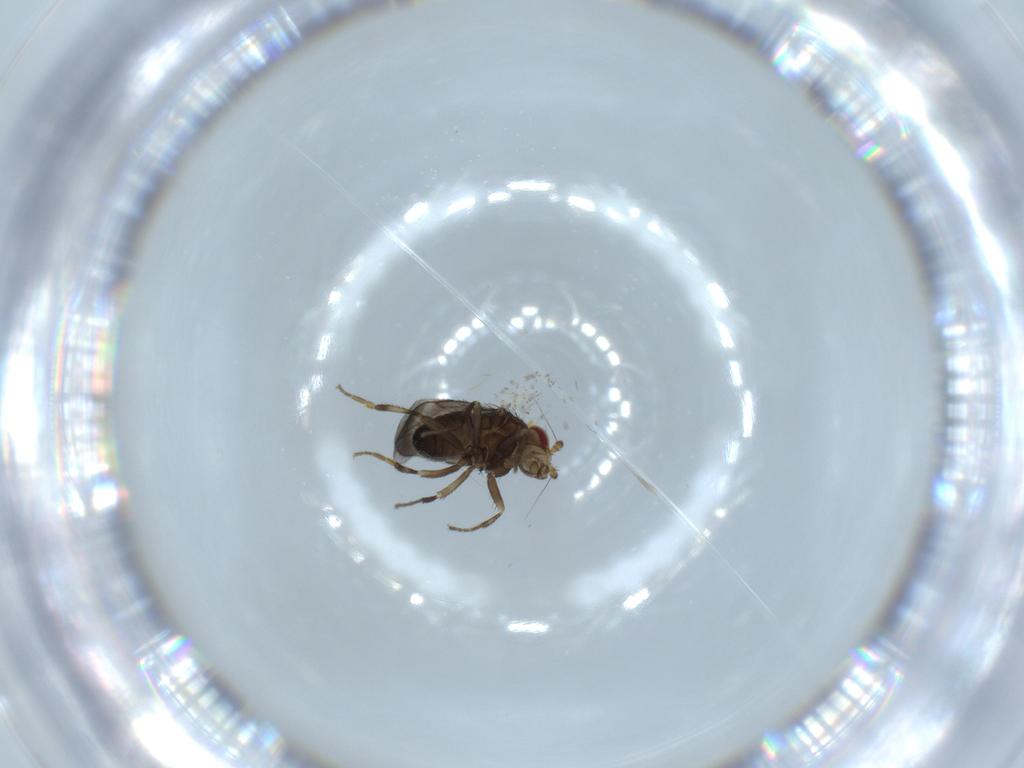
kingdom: Animalia
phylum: Arthropoda
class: Insecta
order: Diptera
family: Sphaeroceridae
